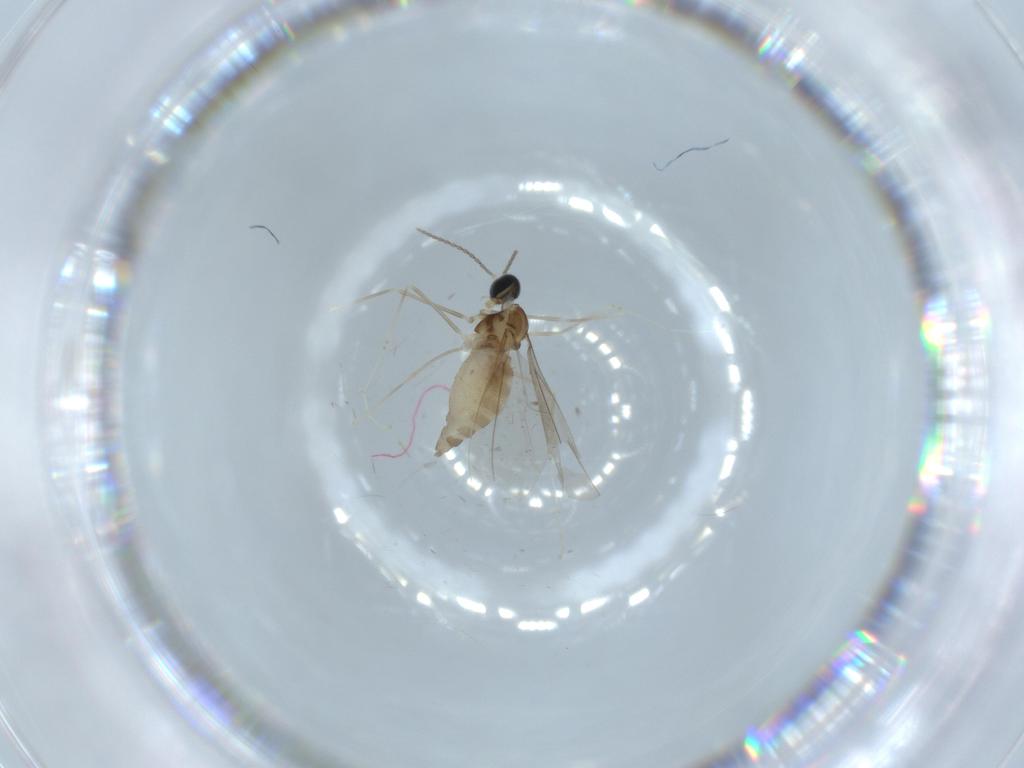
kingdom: Animalia
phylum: Arthropoda
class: Insecta
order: Diptera
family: Cecidomyiidae
